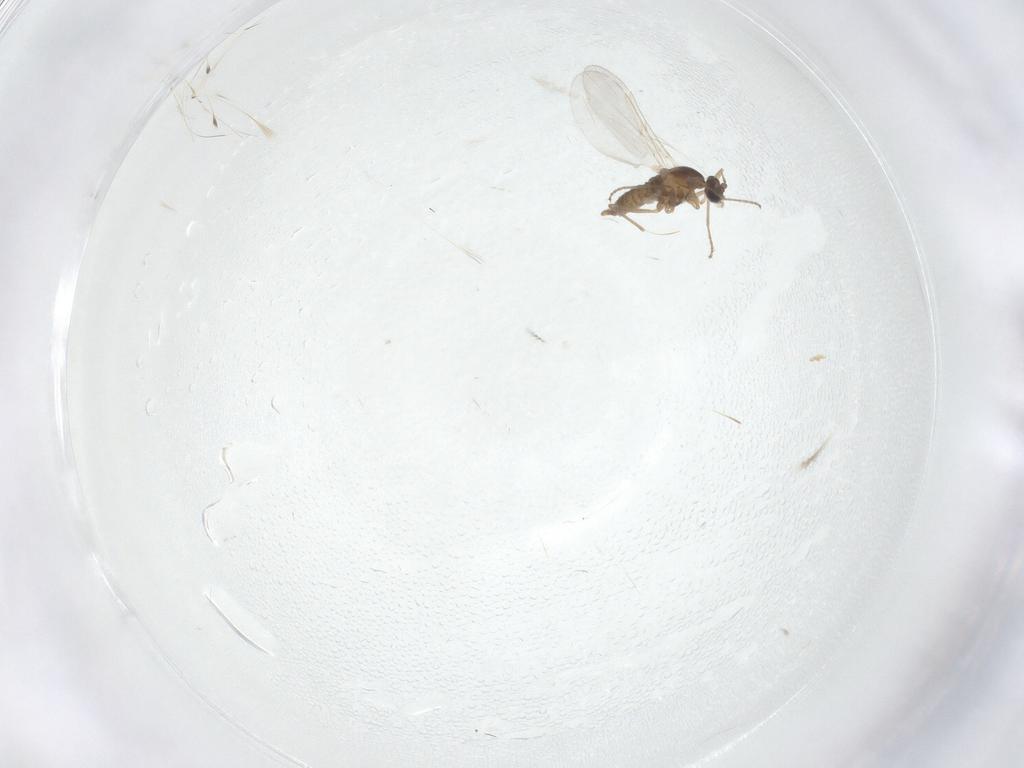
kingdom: Animalia
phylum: Arthropoda
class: Insecta
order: Diptera
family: Cecidomyiidae
